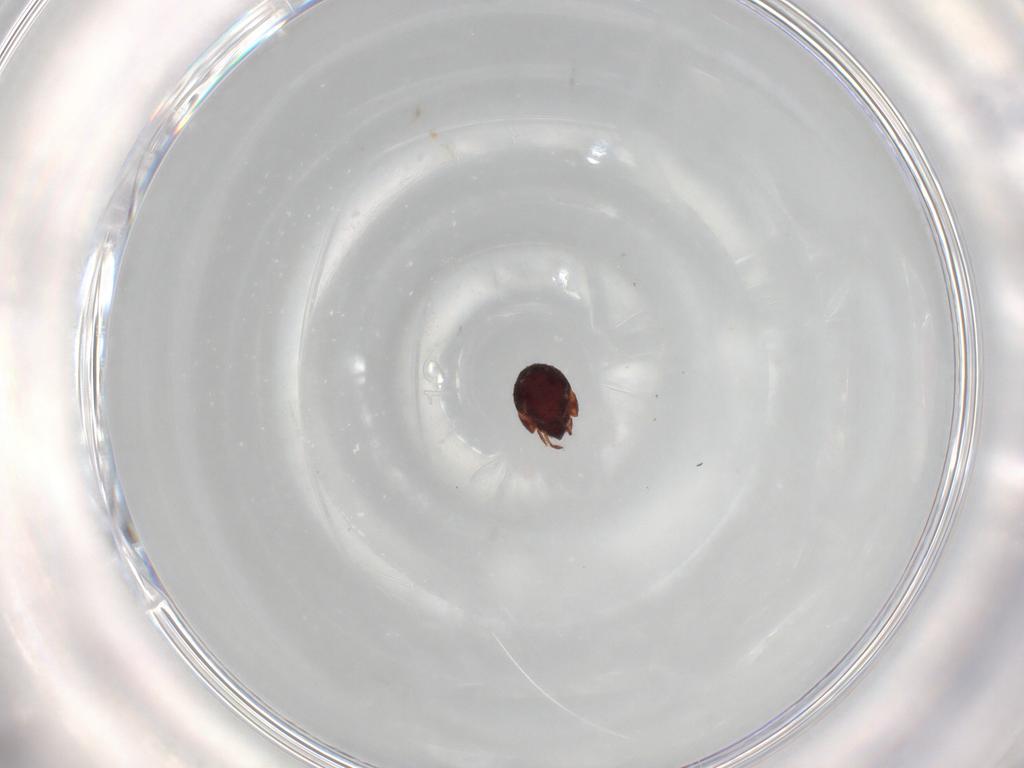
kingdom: Animalia
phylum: Arthropoda
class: Arachnida
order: Sarcoptiformes
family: Humerobatidae
